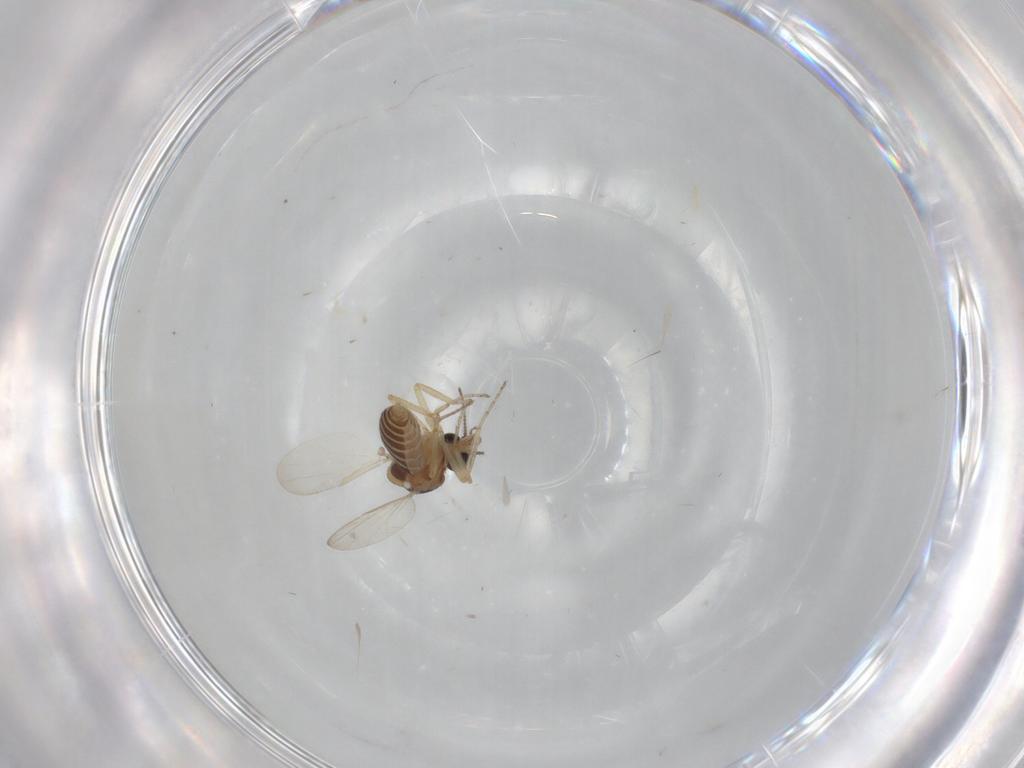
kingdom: Animalia
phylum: Arthropoda
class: Insecta
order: Diptera
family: Ceratopogonidae
